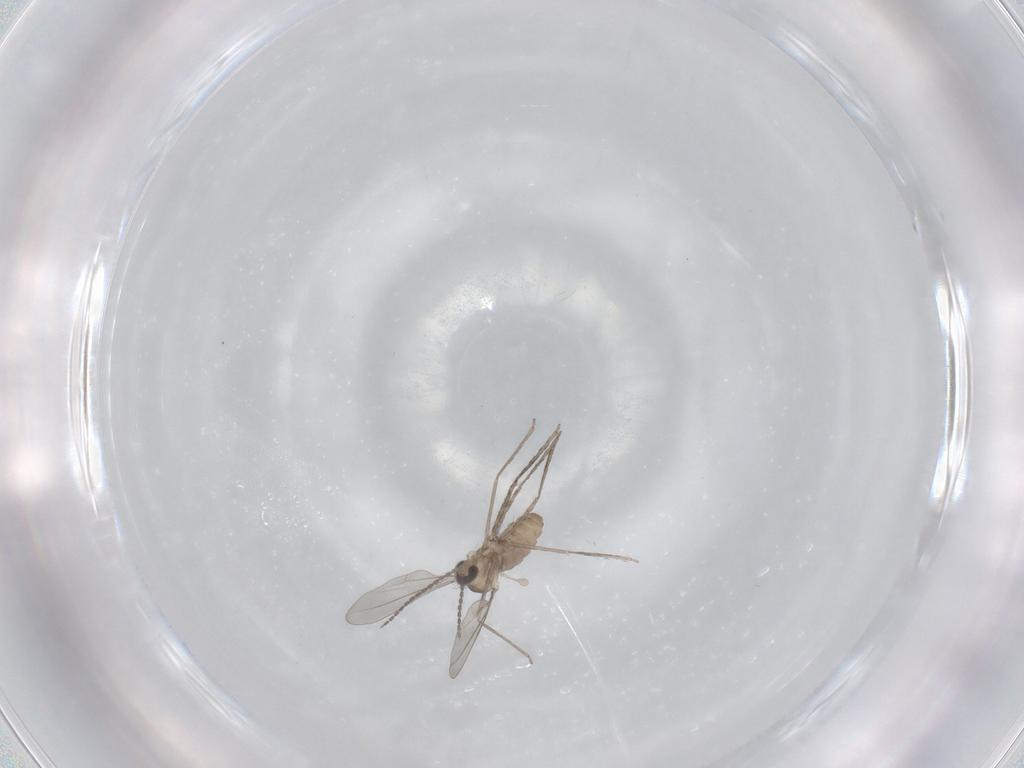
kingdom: Animalia
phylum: Arthropoda
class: Insecta
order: Diptera
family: Cecidomyiidae
